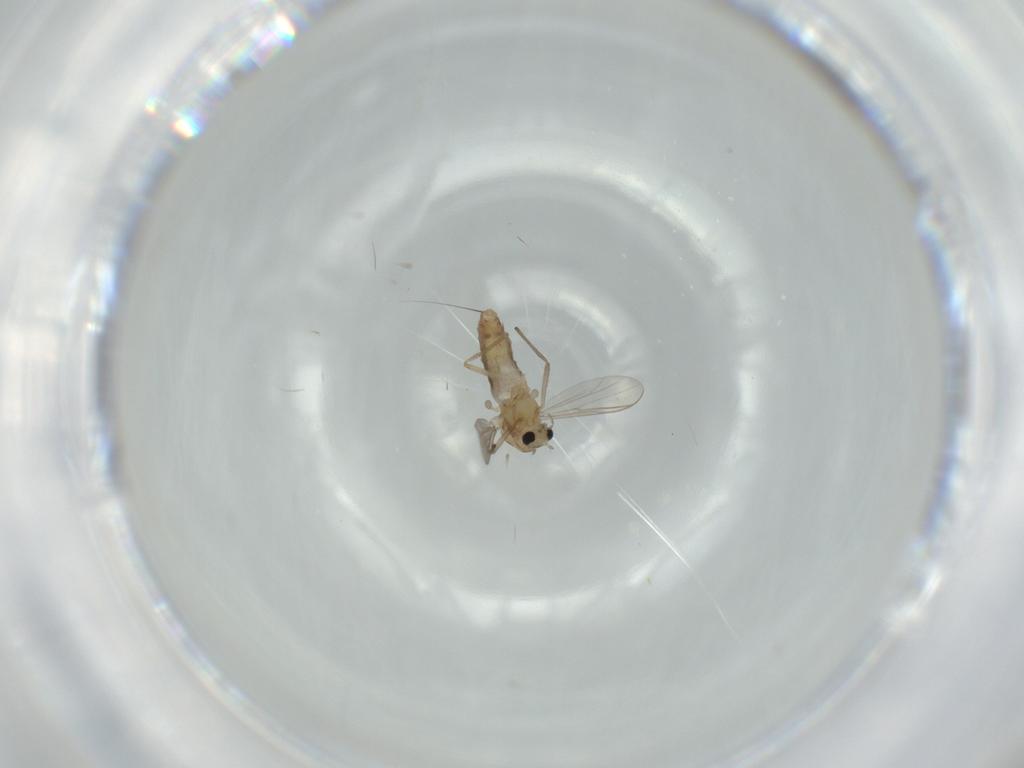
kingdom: Animalia
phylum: Arthropoda
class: Insecta
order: Diptera
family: Chironomidae
